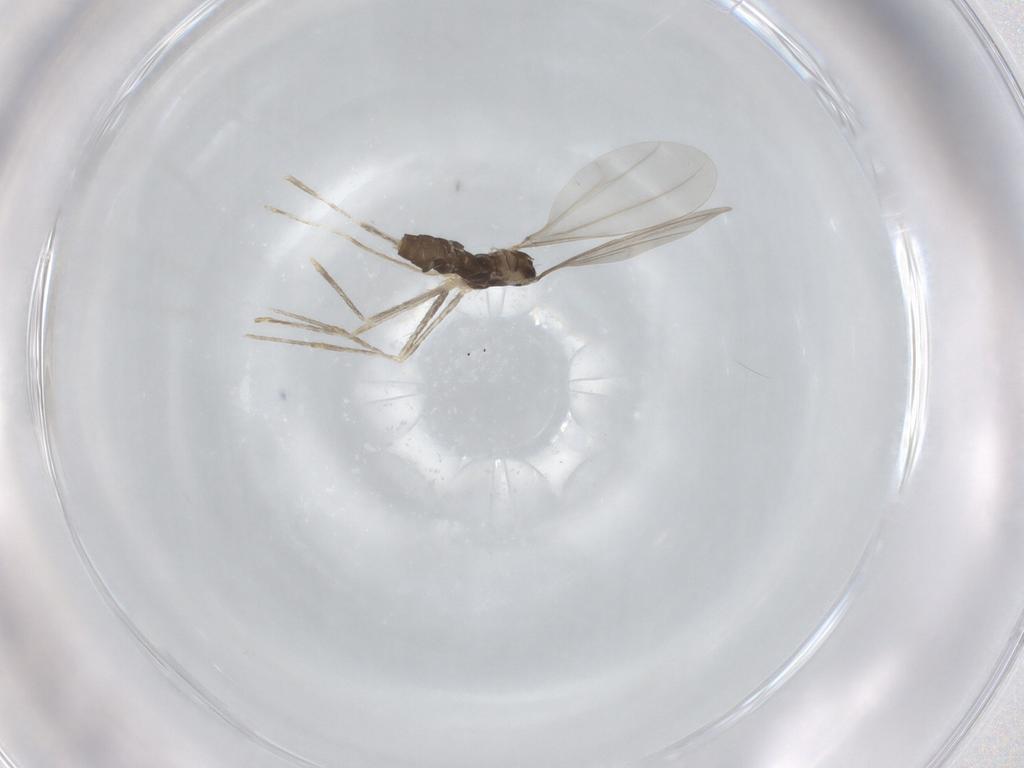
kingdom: Animalia
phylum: Arthropoda
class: Insecta
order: Diptera
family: Cecidomyiidae
